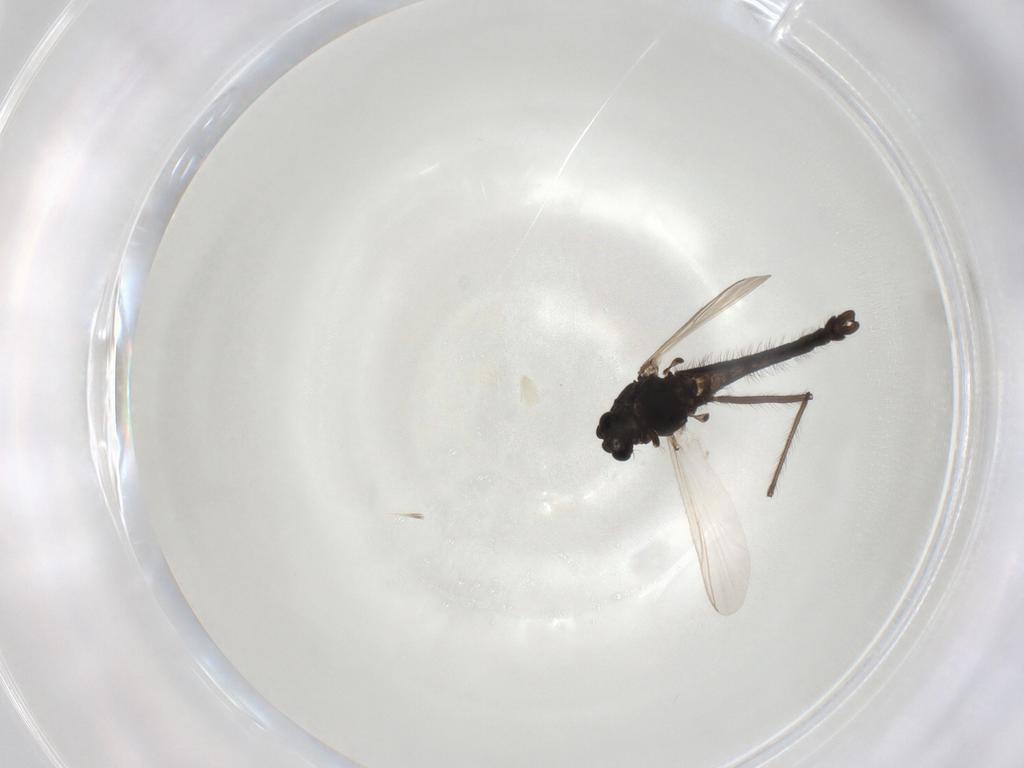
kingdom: Animalia
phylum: Arthropoda
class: Insecta
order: Diptera
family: Chironomidae
